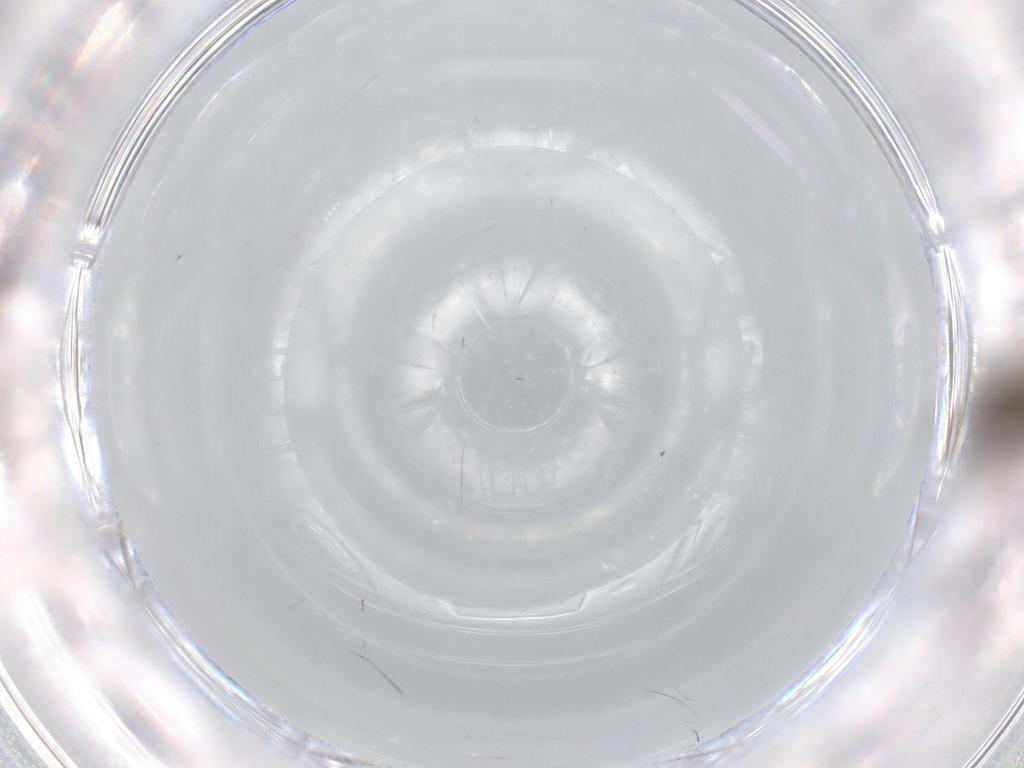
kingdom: Animalia
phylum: Arthropoda
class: Insecta
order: Diptera
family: Chironomidae
